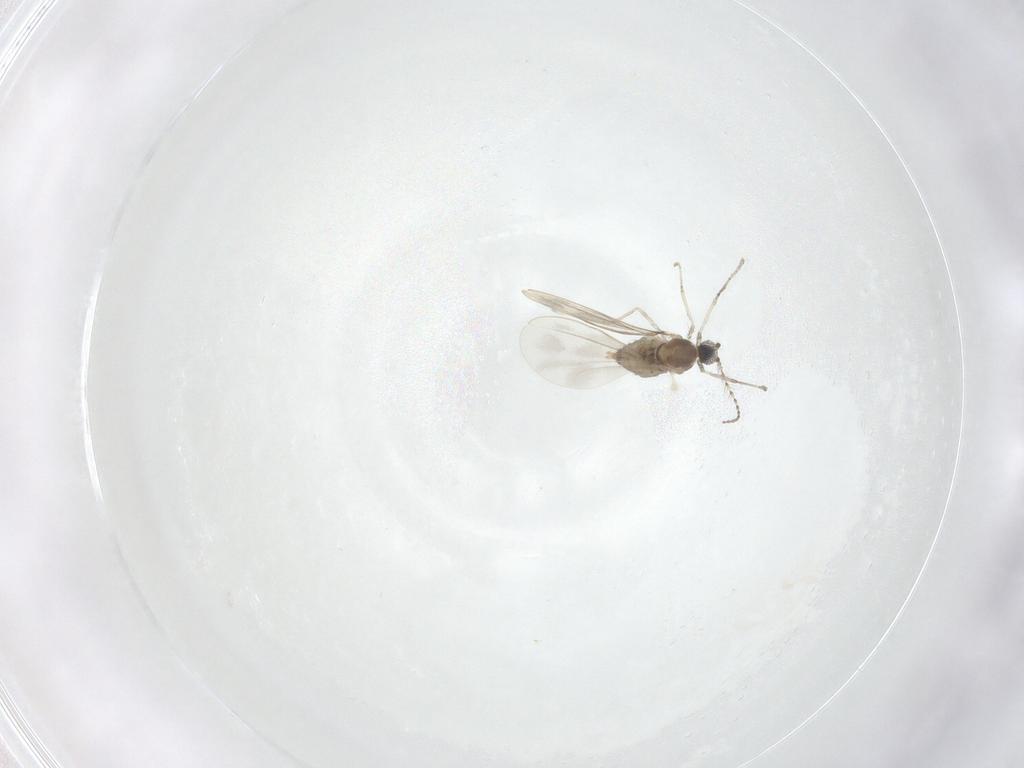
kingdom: Animalia
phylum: Arthropoda
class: Insecta
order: Diptera
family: Cecidomyiidae
